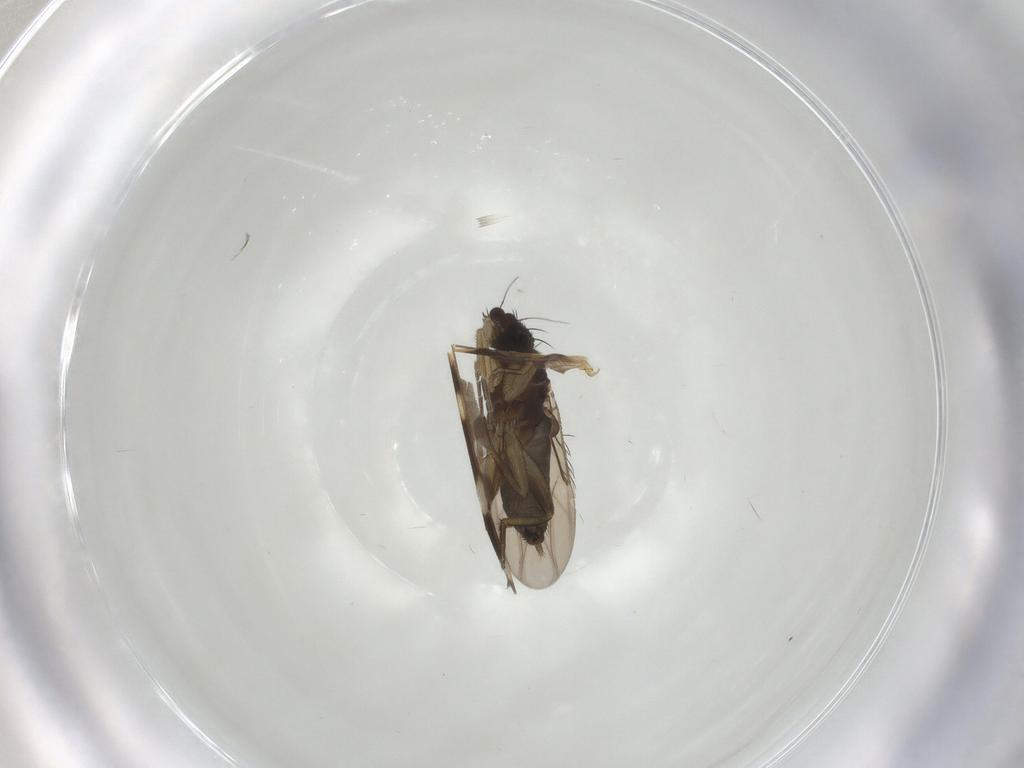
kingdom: Animalia
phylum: Arthropoda
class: Insecta
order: Diptera
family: Phoridae
